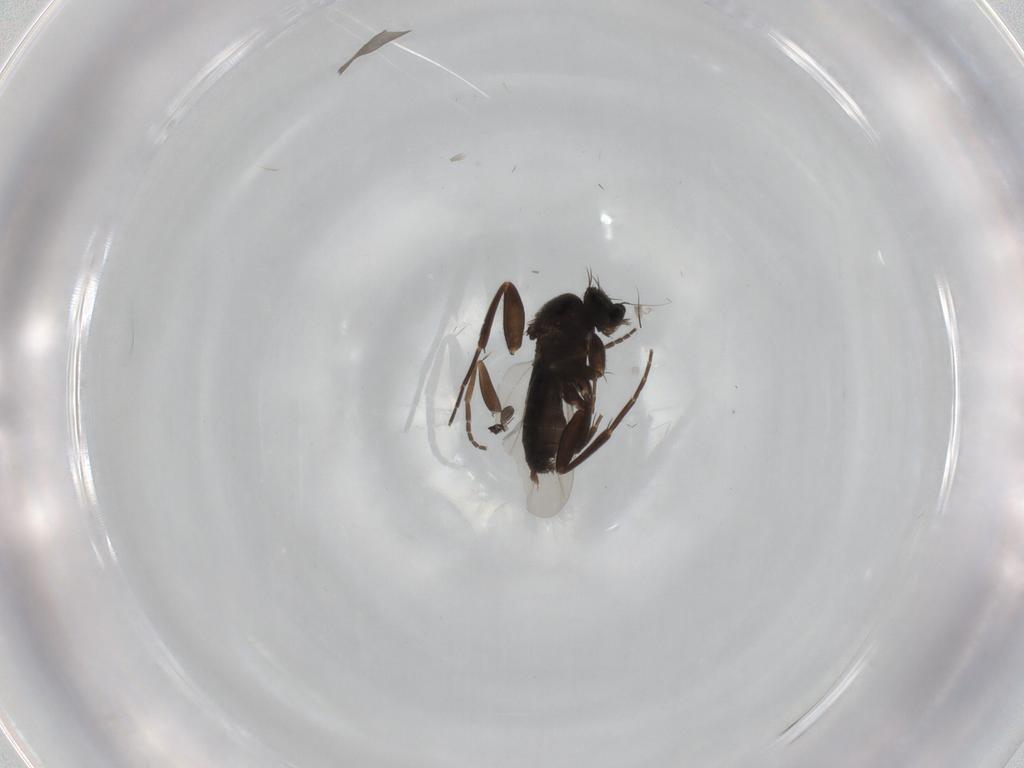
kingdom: Animalia
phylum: Arthropoda
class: Insecta
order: Diptera
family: Phoridae
